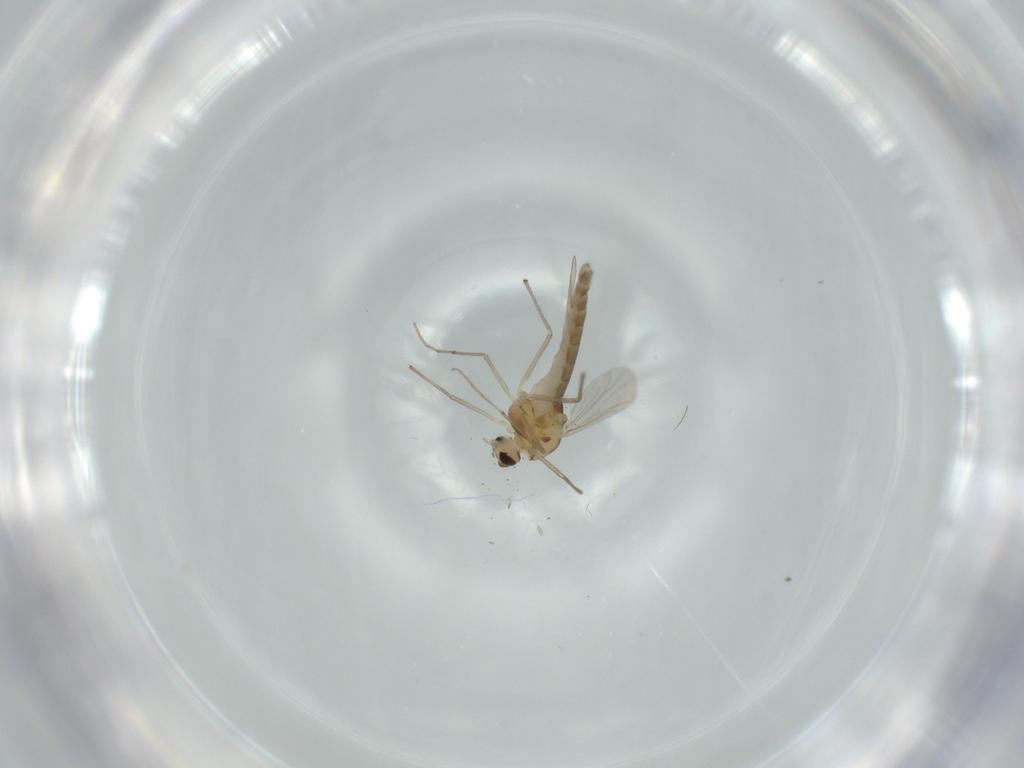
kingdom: Animalia
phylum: Arthropoda
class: Insecta
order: Diptera
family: Chironomidae
